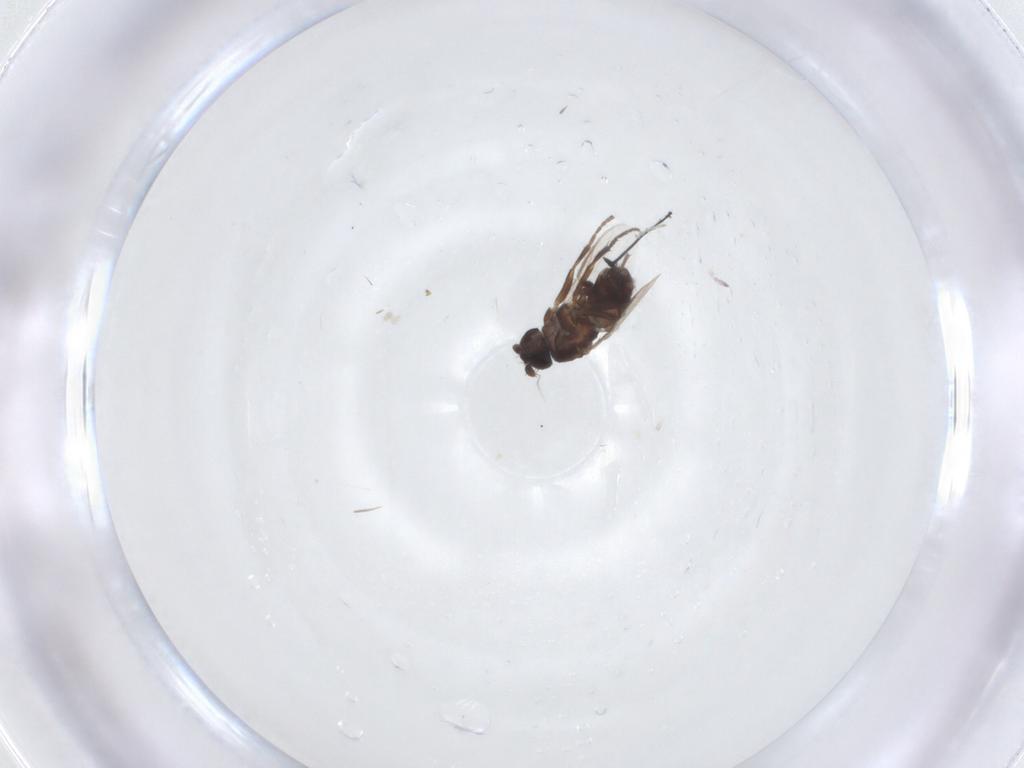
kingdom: Animalia
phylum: Arthropoda
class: Insecta
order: Diptera
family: Sphaeroceridae
